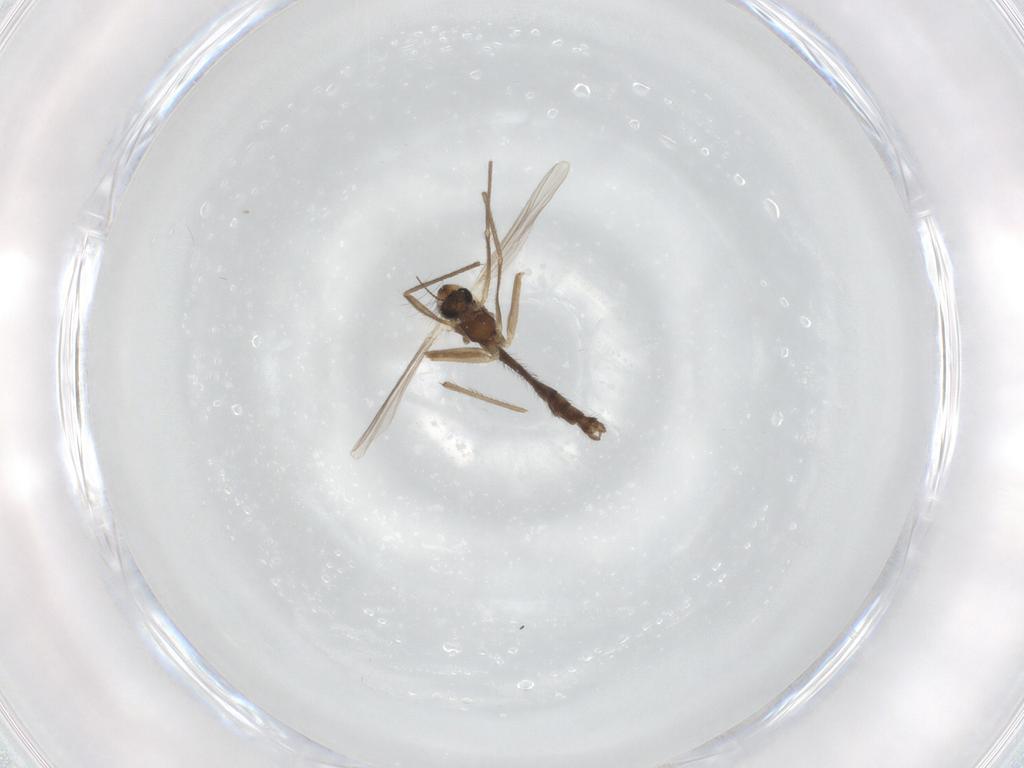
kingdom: Animalia
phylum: Arthropoda
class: Insecta
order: Diptera
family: Chironomidae
